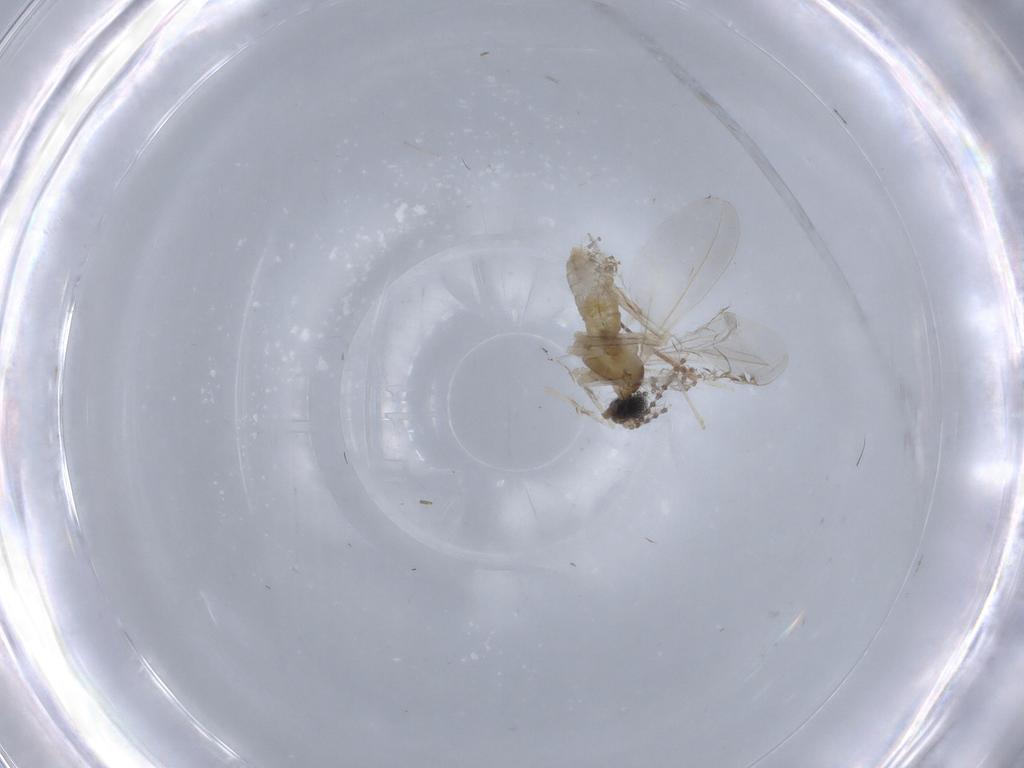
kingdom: Animalia
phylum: Arthropoda
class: Insecta
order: Diptera
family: Cecidomyiidae
